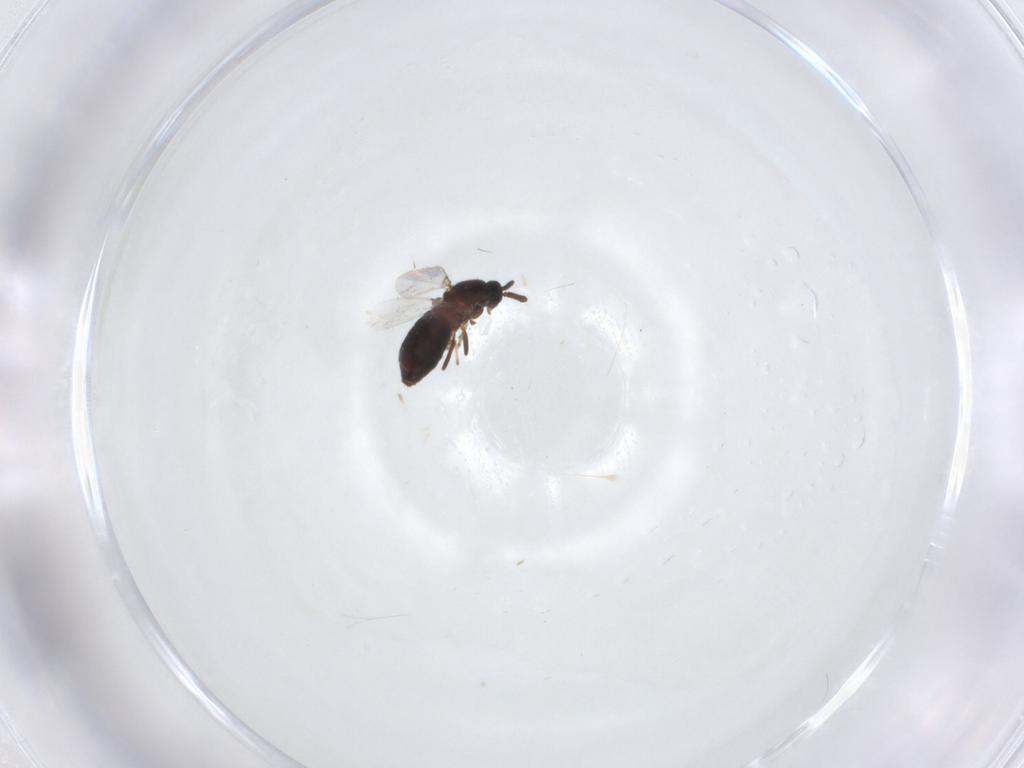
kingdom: Animalia
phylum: Arthropoda
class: Insecta
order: Diptera
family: Scatopsidae
